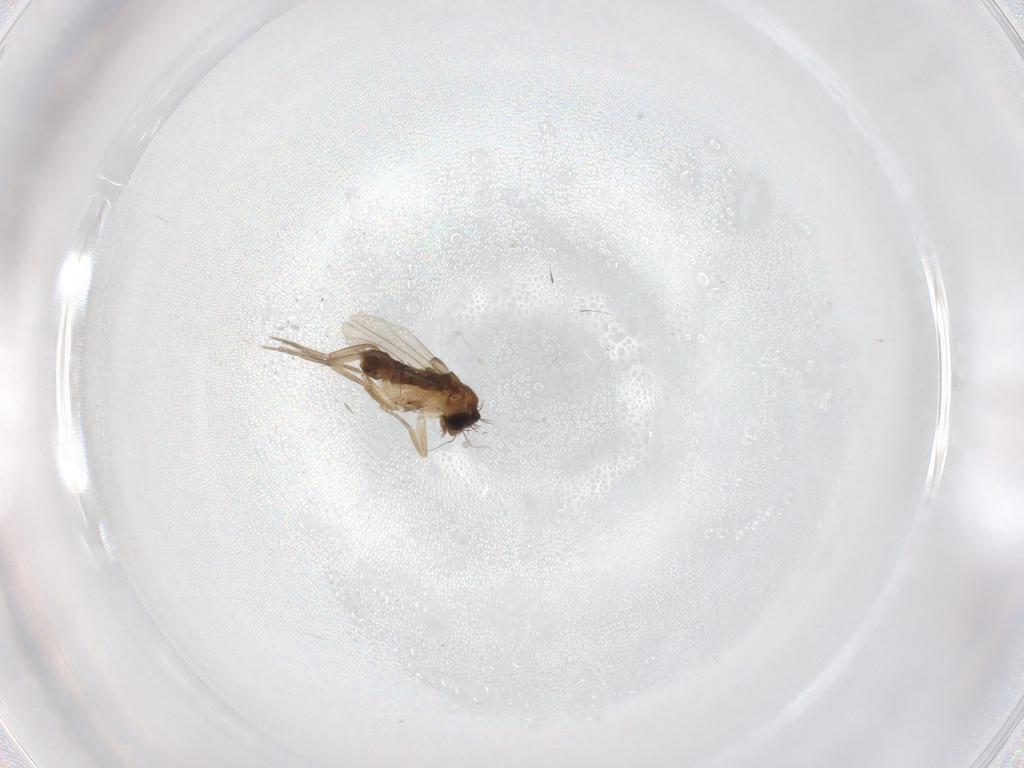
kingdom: Animalia
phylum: Arthropoda
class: Insecta
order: Diptera
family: Phoridae
